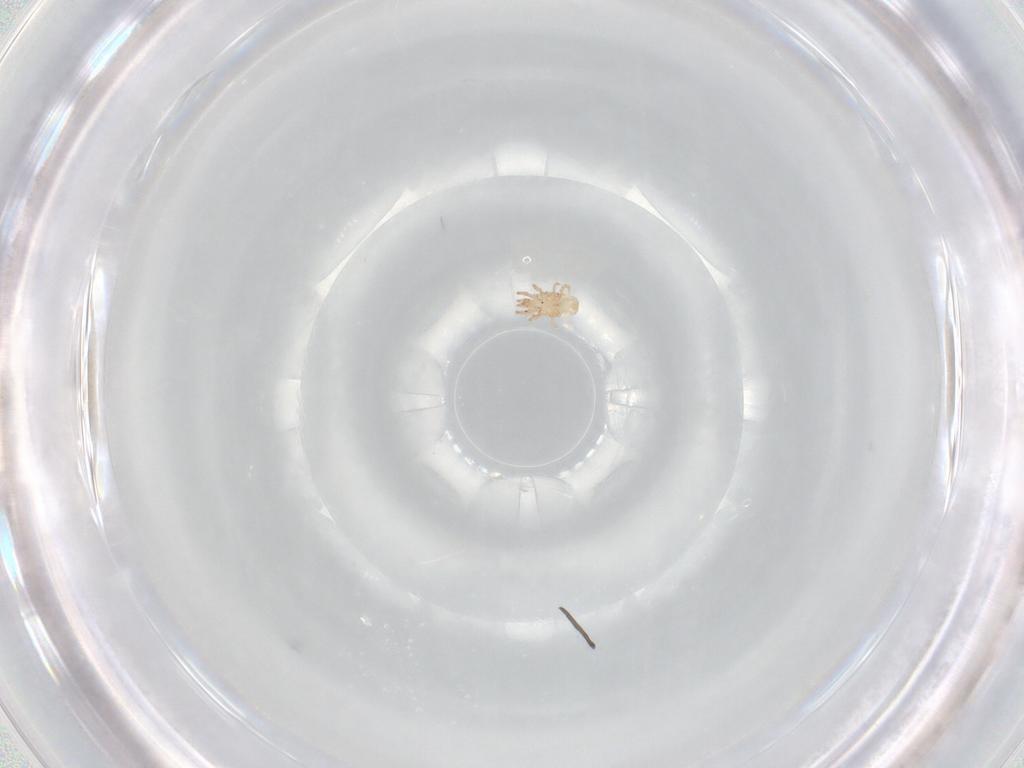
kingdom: Animalia
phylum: Arthropoda
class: Arachnida
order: Mesostigmata
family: Ascidae
